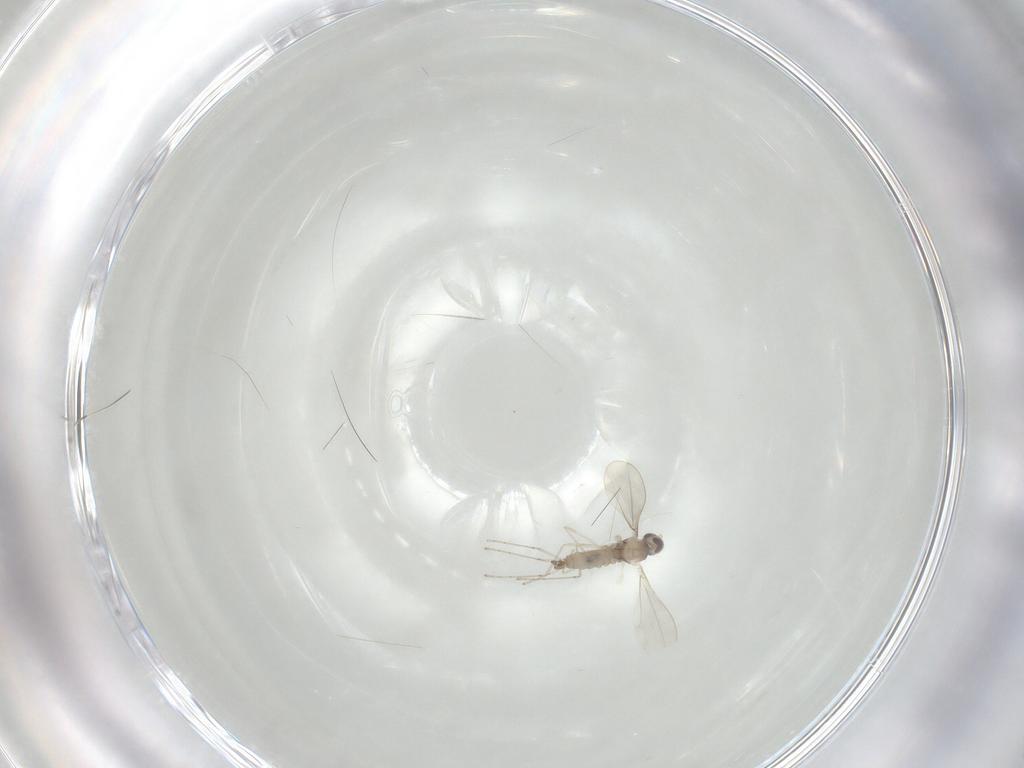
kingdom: Animalia
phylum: Arthropoda
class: Insecta
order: Diptera
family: Cecidomyiidae
